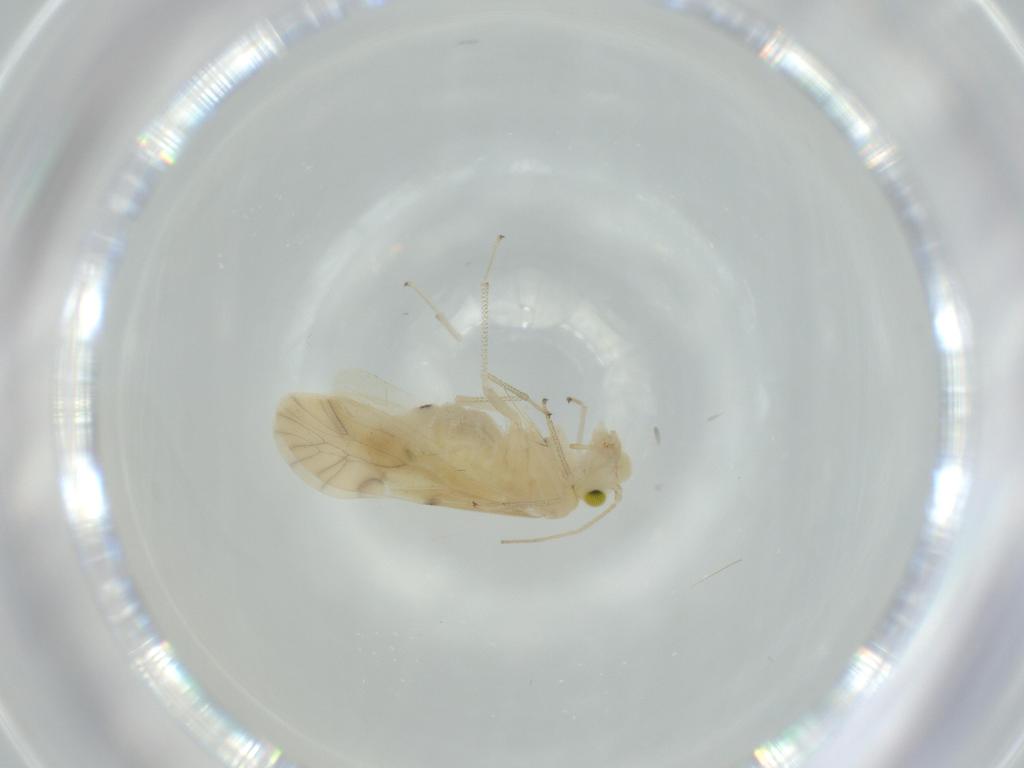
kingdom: Animalia
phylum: Arthropoda
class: Insecta
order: Psocodea
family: Caeciliusidae
